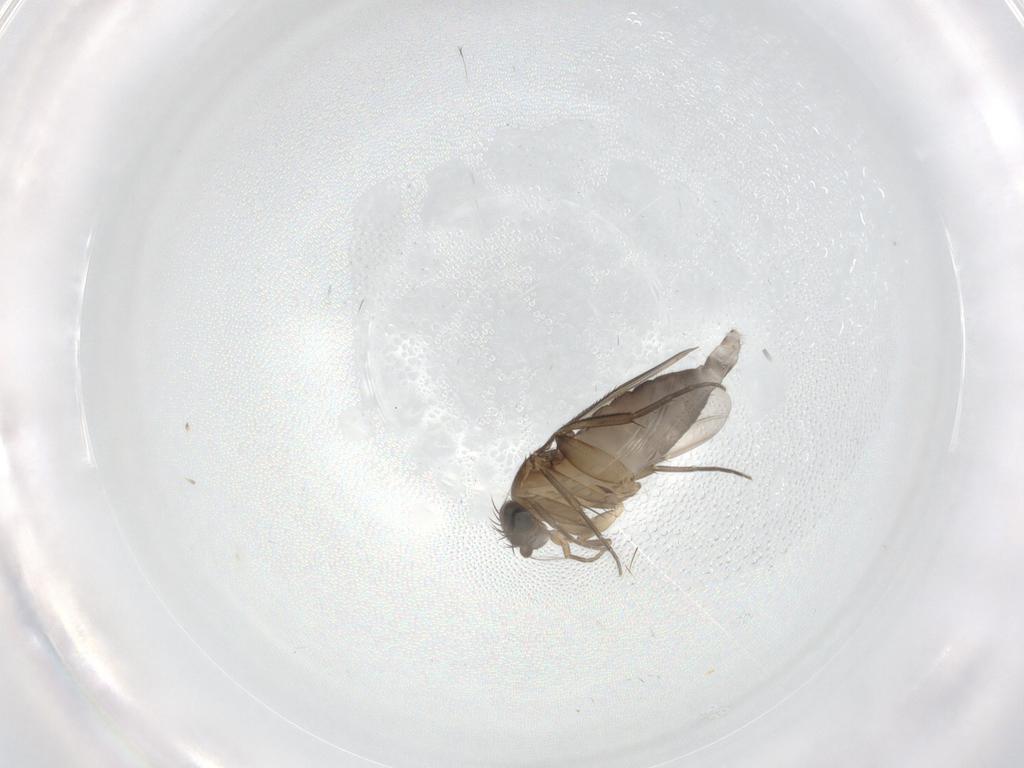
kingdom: Animalia
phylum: Arthropoda
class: Insecta
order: Diptera
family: Phoridae
